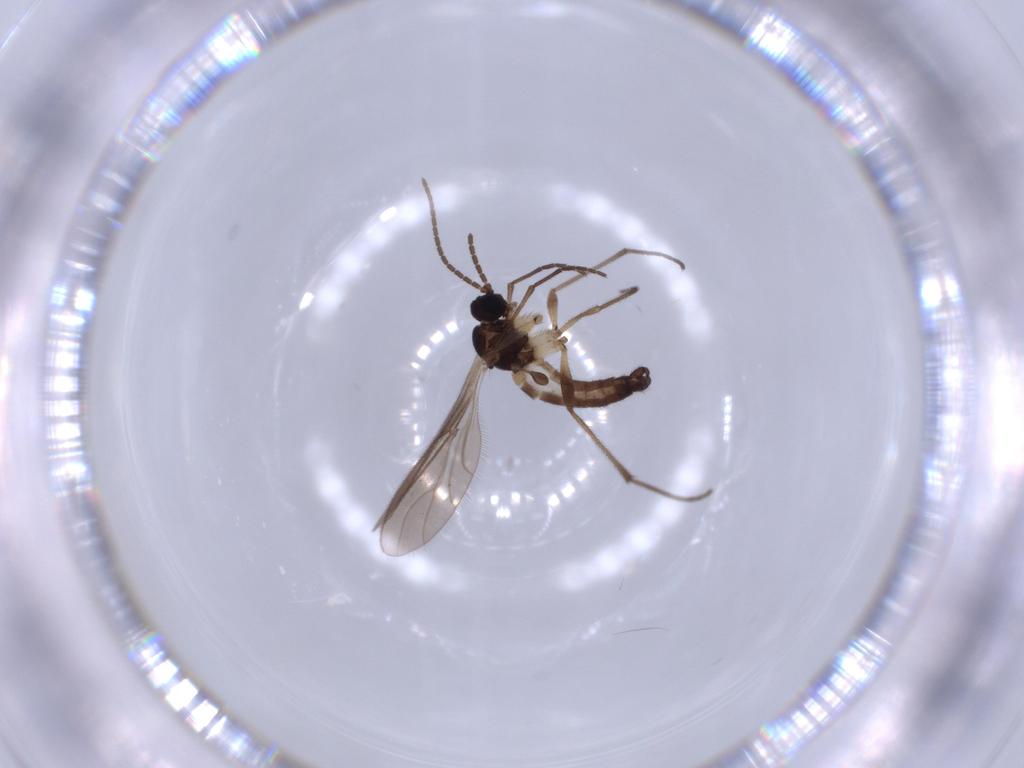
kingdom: Animalia
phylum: Arthropoda
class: Insecta
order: Diptera
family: Sciaridae
